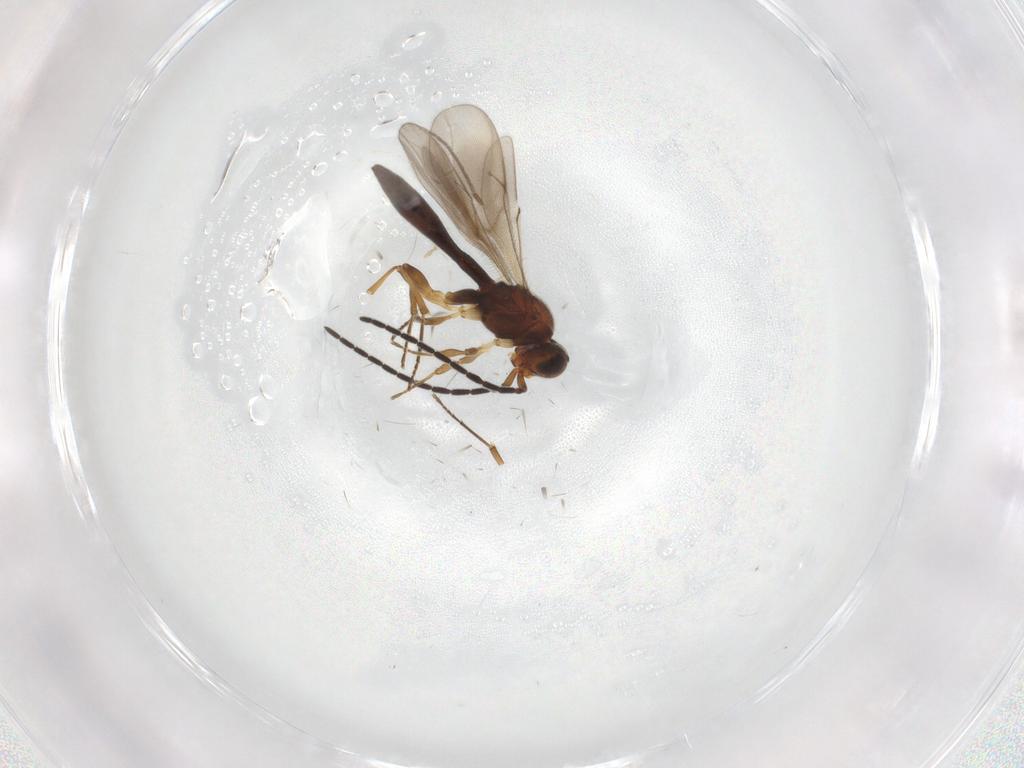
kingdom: Animalia
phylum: Arthropoda
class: Insecta
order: Hymenoptera
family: Scelionidae
